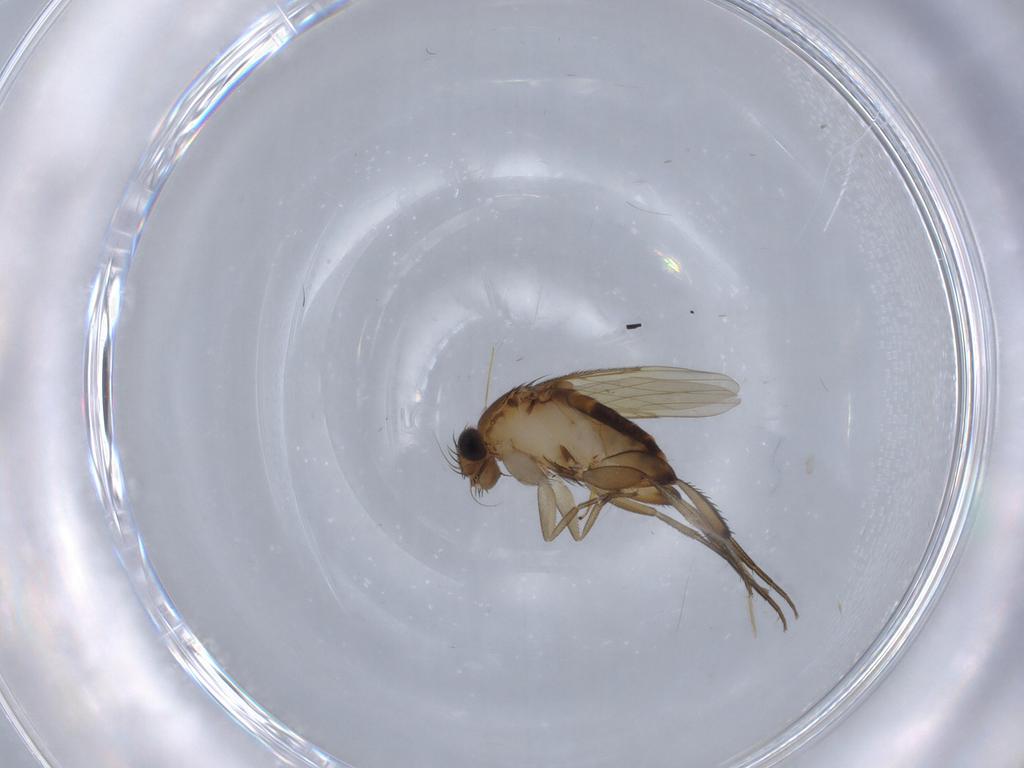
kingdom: Animalia
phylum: Arthropoda
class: Insecta
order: Diptera
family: Phoridae
